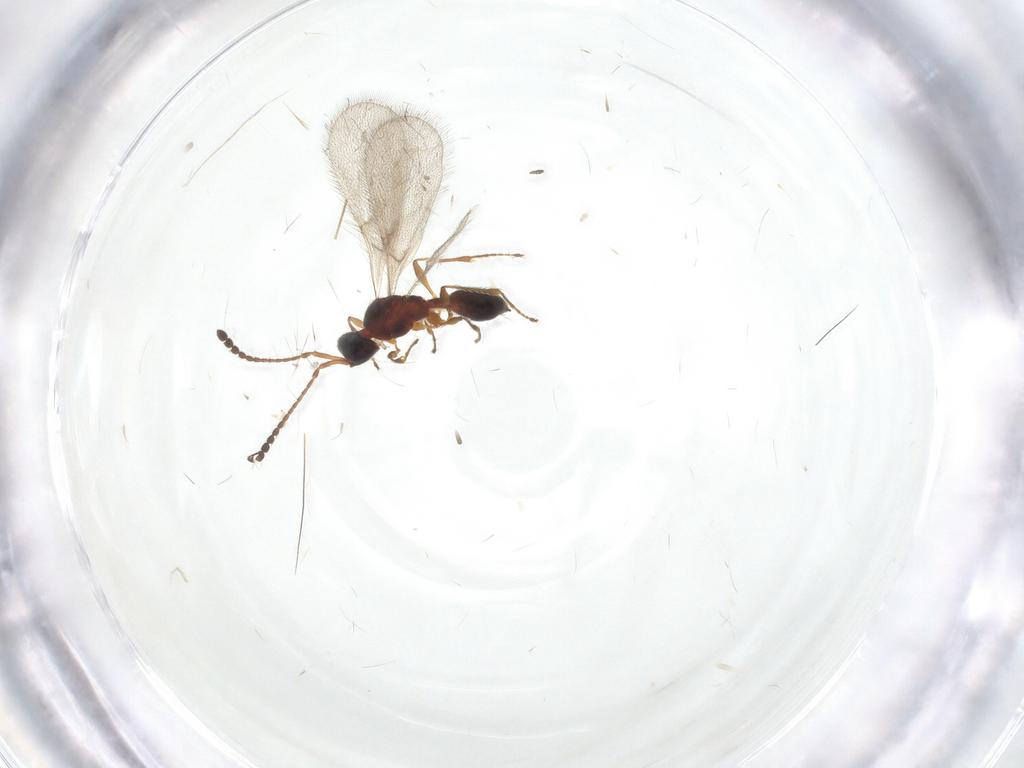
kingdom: Animalia
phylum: Arthropoda
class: Insecta
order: Hymenoptera
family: Diapriidae
